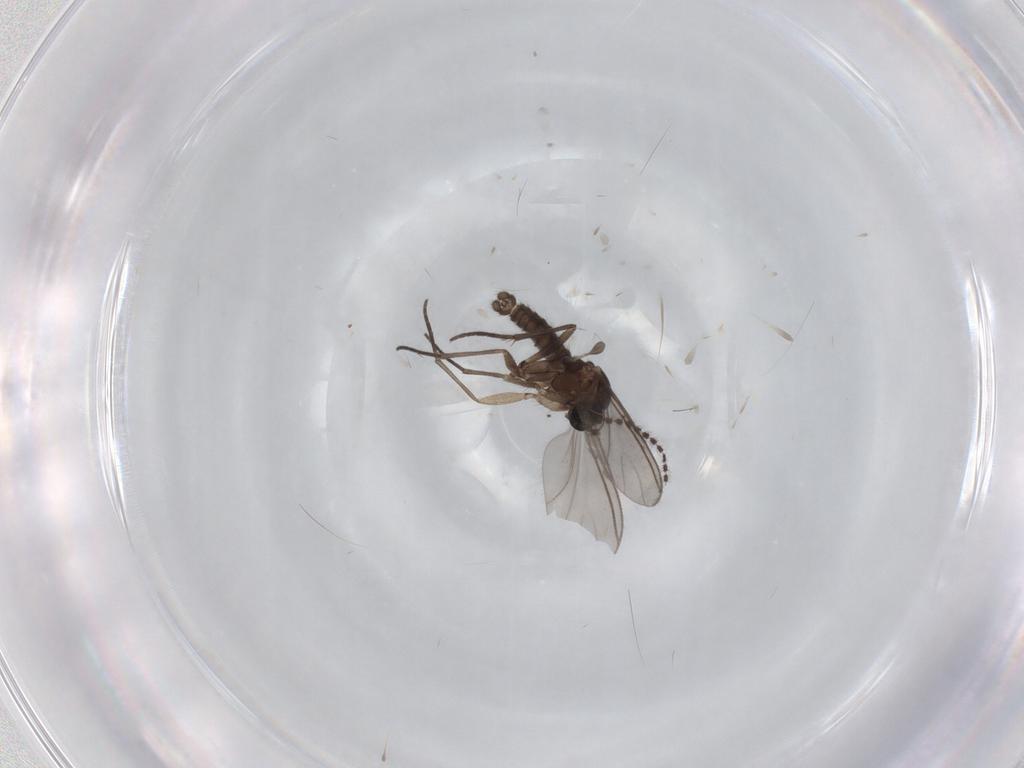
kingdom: Animalia
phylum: Arthropoda
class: Insecta
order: Diptera
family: Sciaridae
